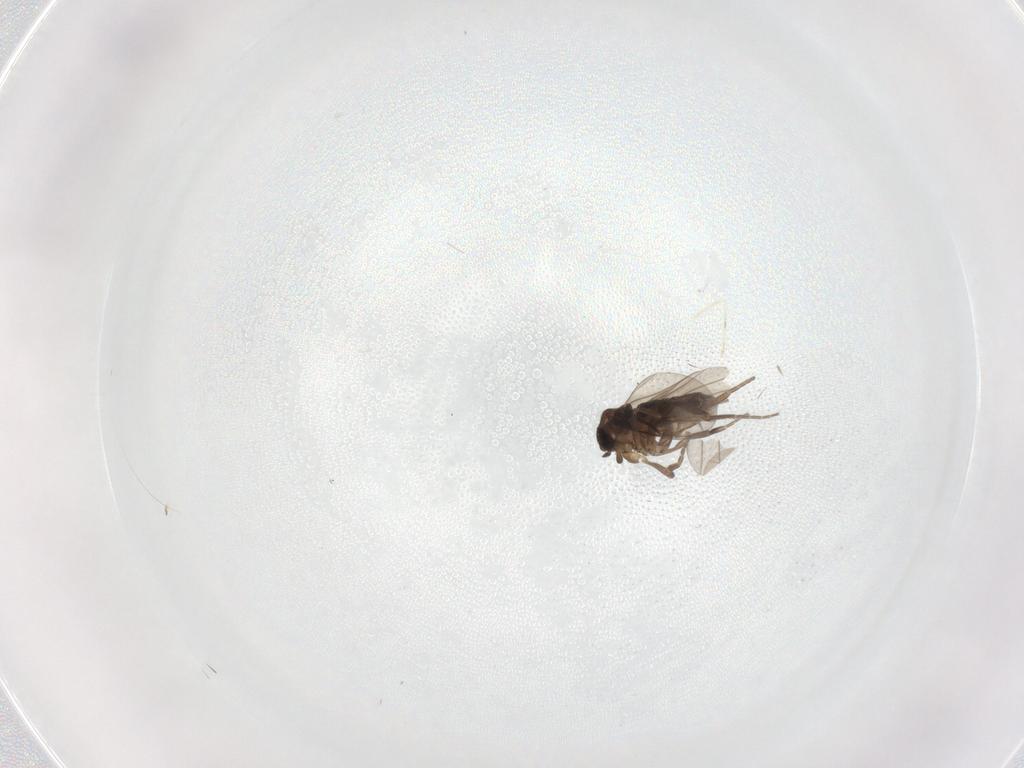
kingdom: Animalia
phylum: Arthropoda
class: Insecta
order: Diptera
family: Phoridae
